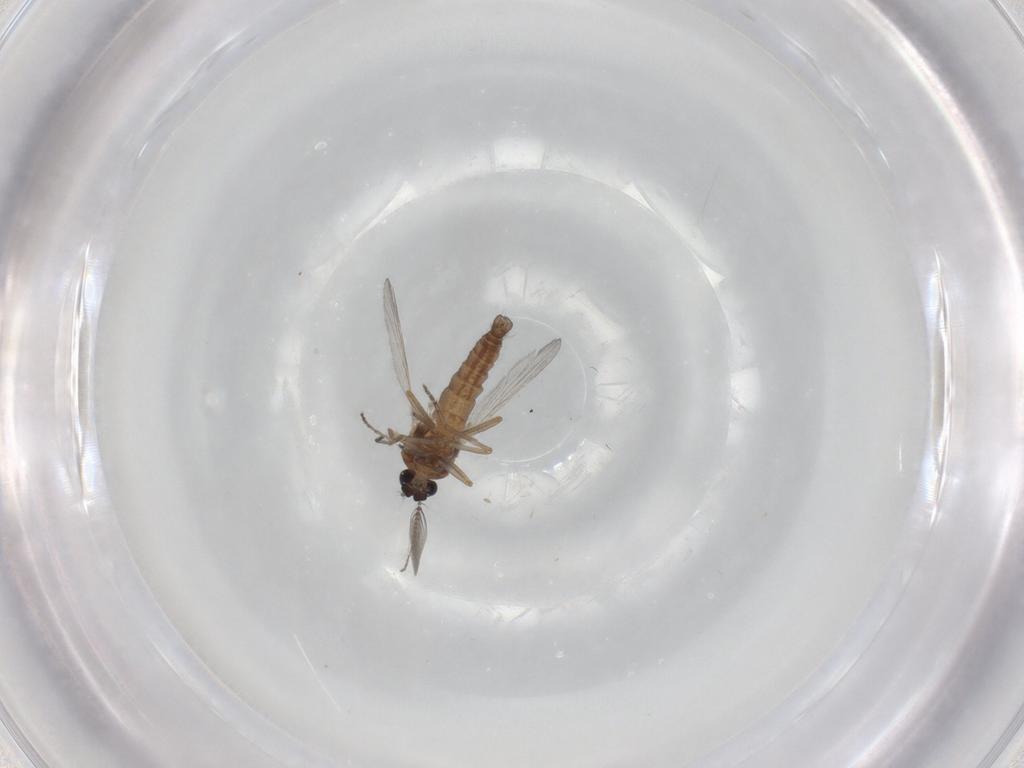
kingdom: Animalia
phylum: Arthropoda
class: Insecta
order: Diptera
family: Ceratopogonidae
